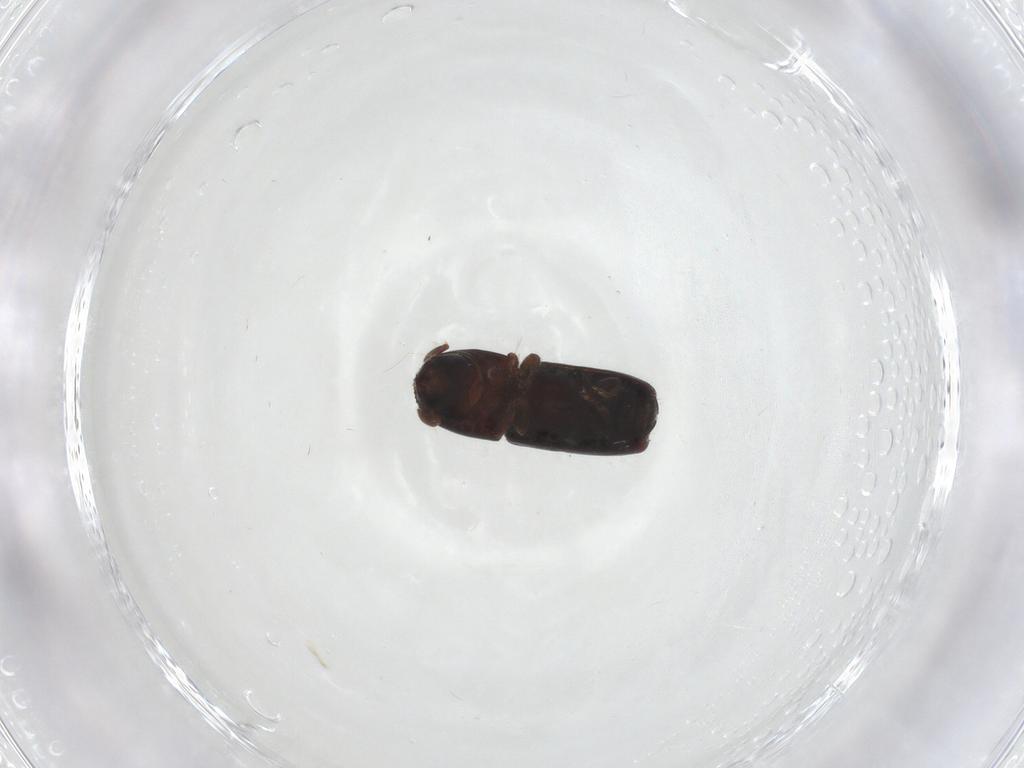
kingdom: Animalia
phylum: Arthropoda
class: Insecta
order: Coleoptera
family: Curculionidae
